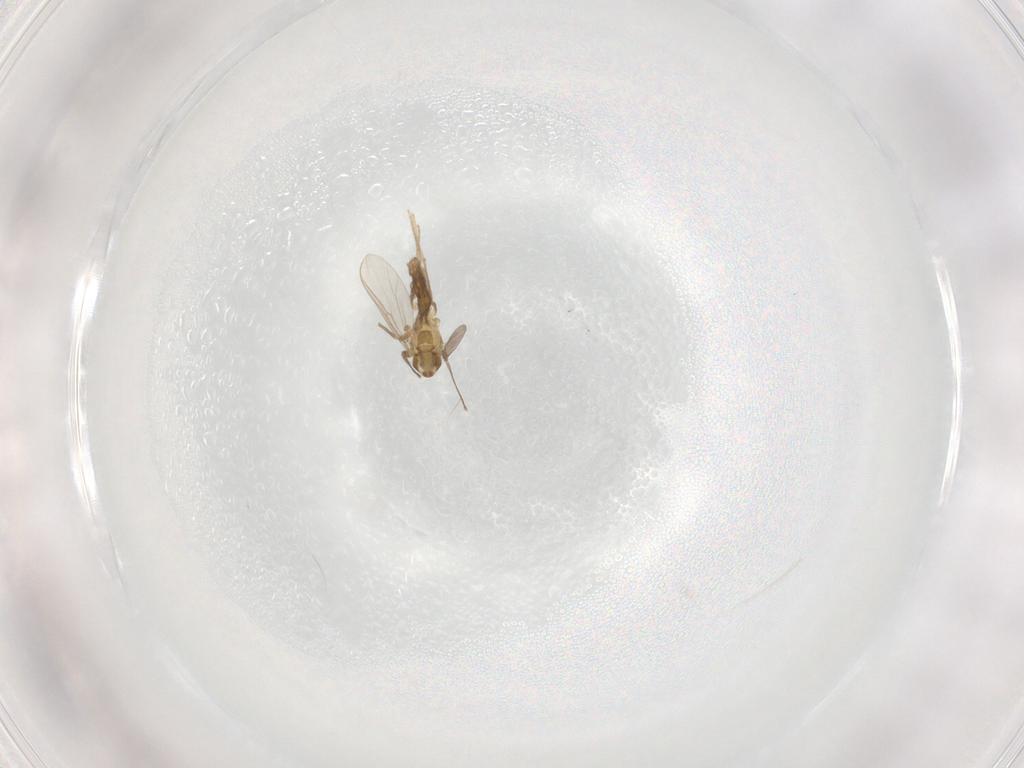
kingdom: Animalia
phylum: Arthropoda
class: Insecta
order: Diptera
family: Chironomidae
